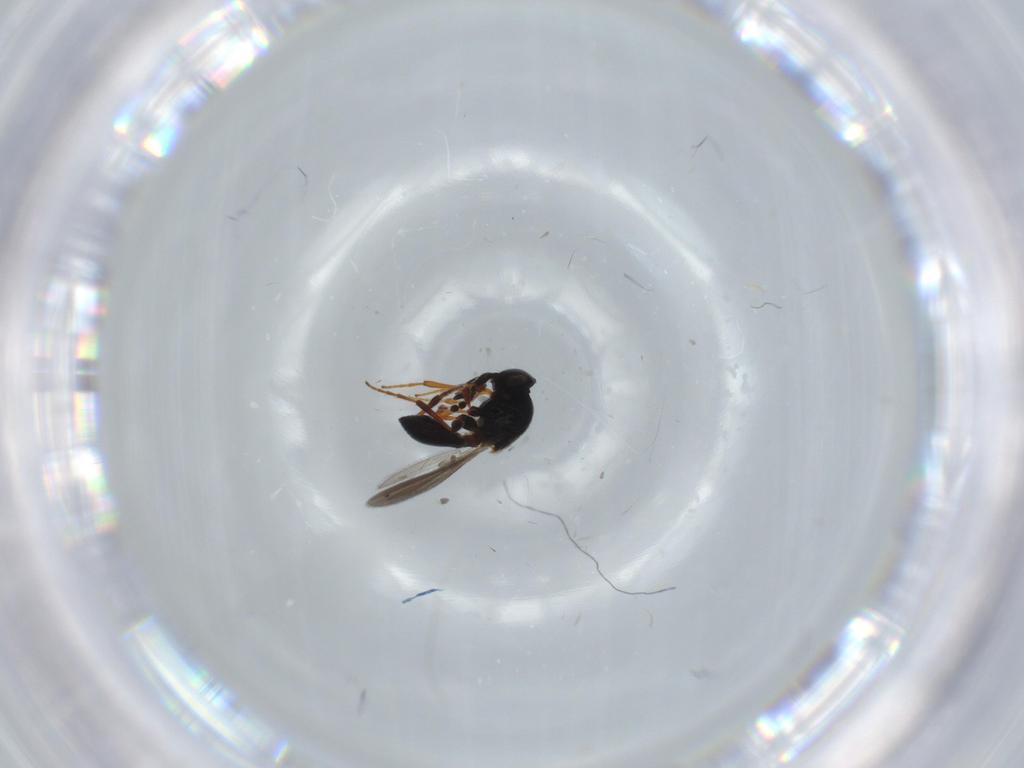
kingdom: Animalia
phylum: Arthropoda
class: Insecta
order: Hymenoptera
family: Platygastridae
